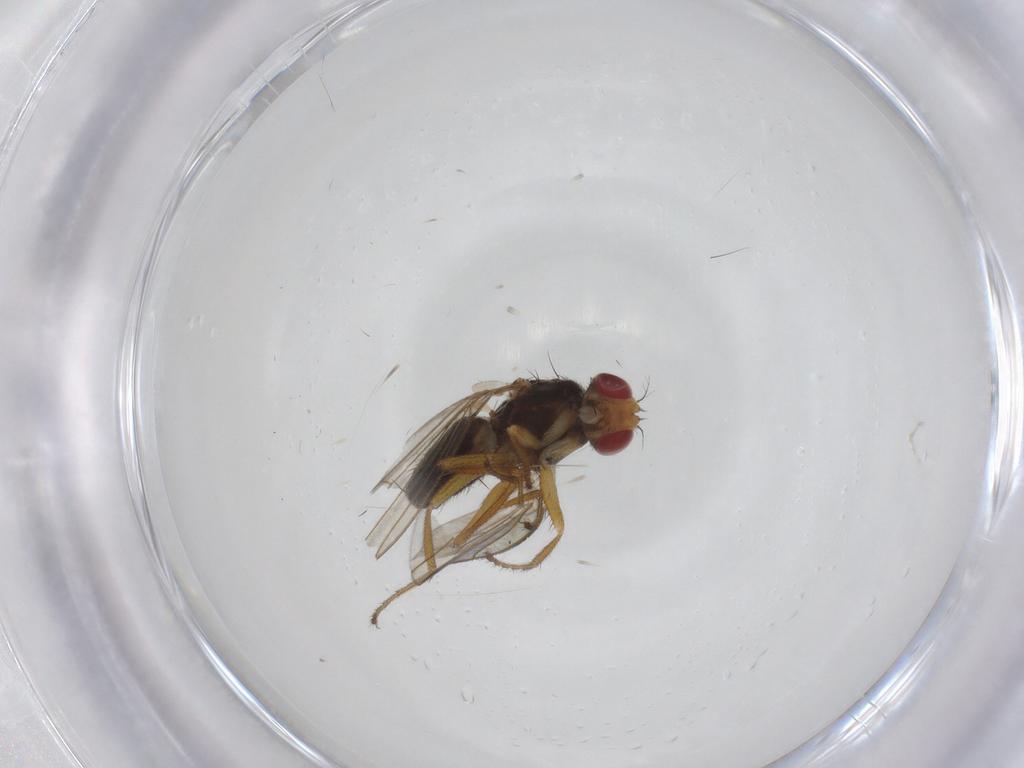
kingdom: Animalia
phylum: Arthropoda
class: Insecta
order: Diptera
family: Drosophilidae
